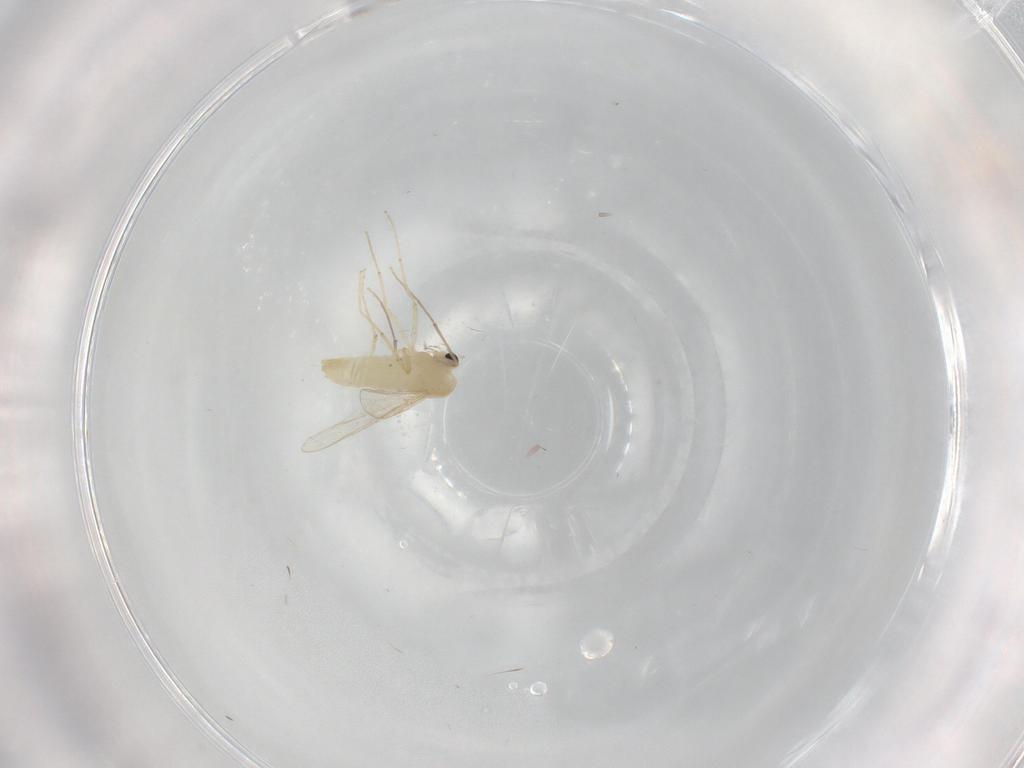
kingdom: Animalia
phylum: Arthropoda
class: Insecta
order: Diptera
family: Chironomidae
